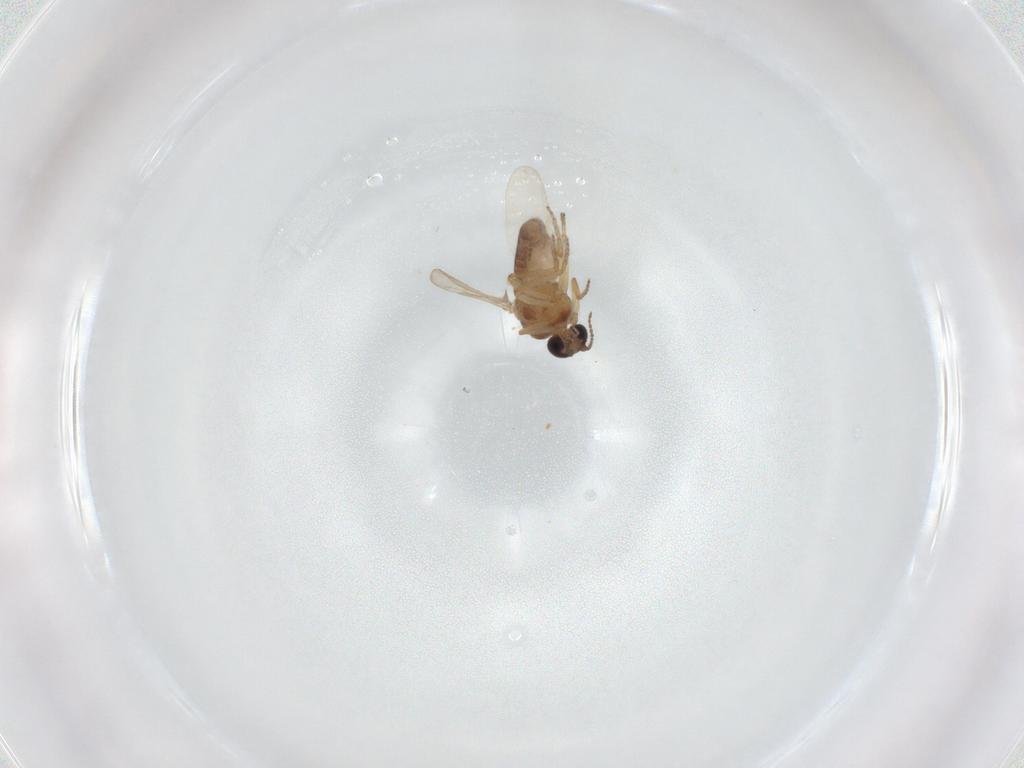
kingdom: Animalia
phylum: Arthropoda
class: Insecta
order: Diptera
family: Ceratopogonidae
